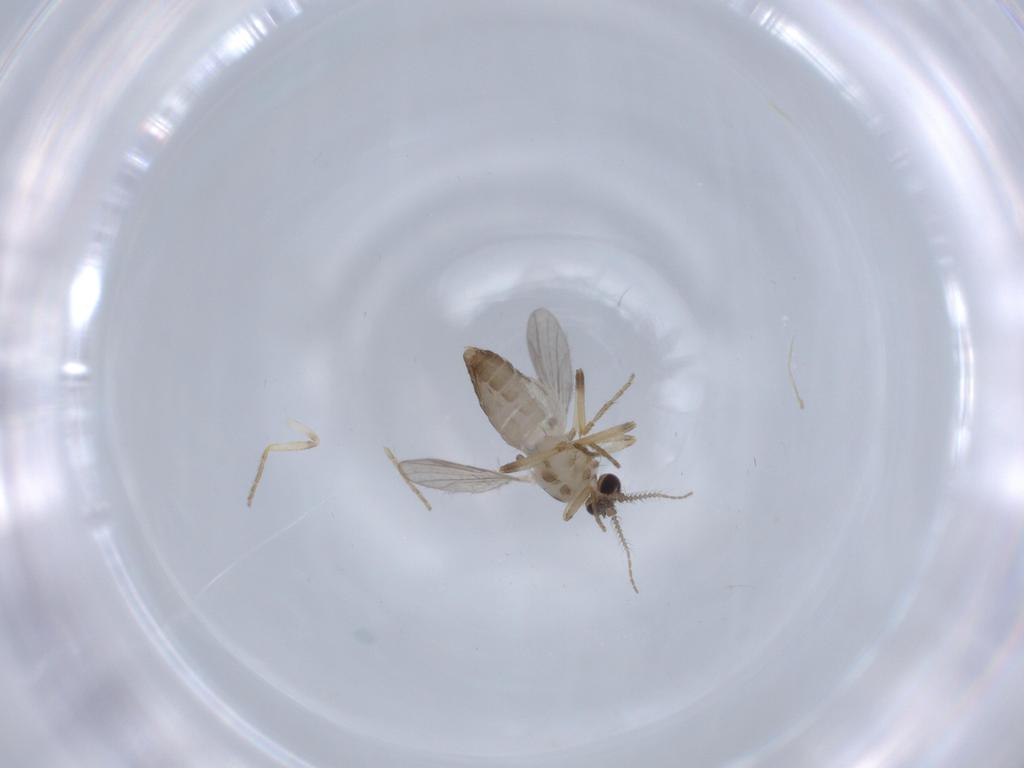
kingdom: Animalia
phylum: Arthropoda
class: Insecta
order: Diptera
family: Ceratopogonidae
